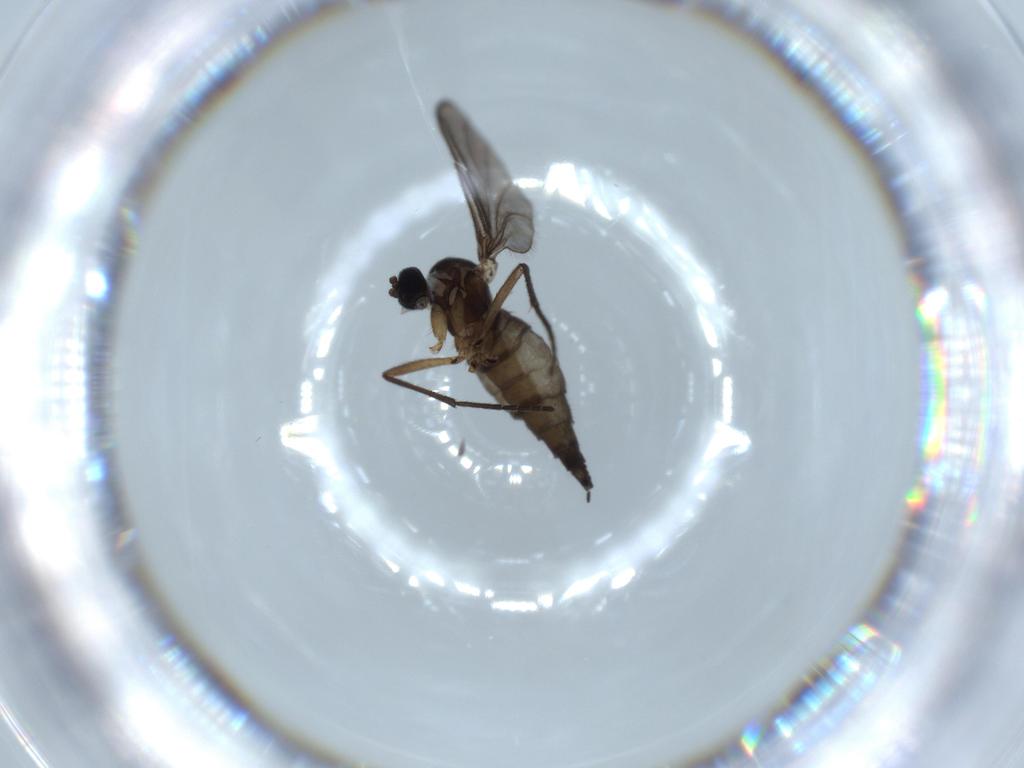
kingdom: Animalia
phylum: Arthropoda
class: Insecta
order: Diptera
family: Sciaridae
